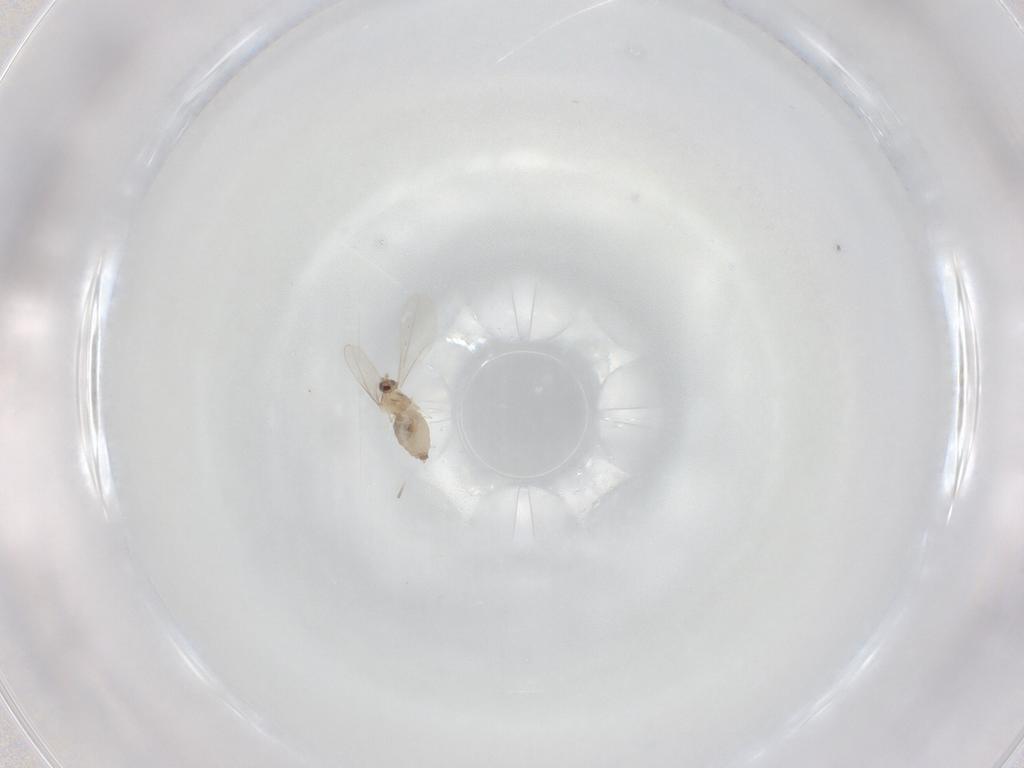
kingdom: Animalia
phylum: Arthropoda
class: Insecta
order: Diptera
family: Cecidomyiidae
